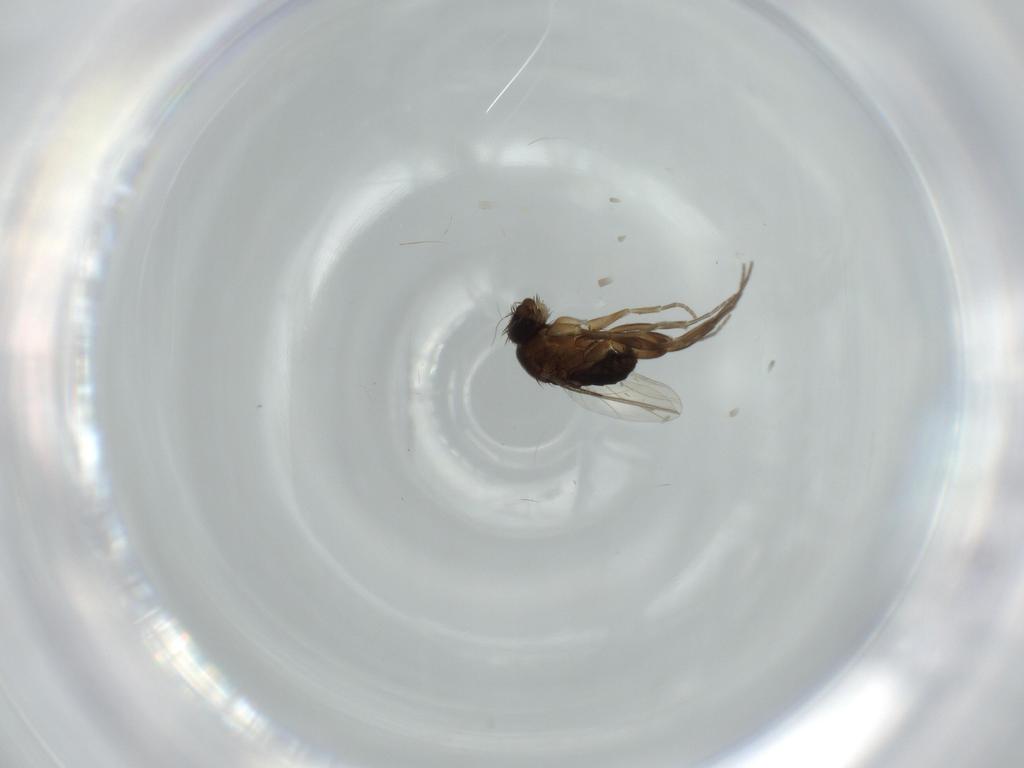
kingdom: Animalia
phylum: Arthropoda
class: Insecta
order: Diptera
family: Phoridae
